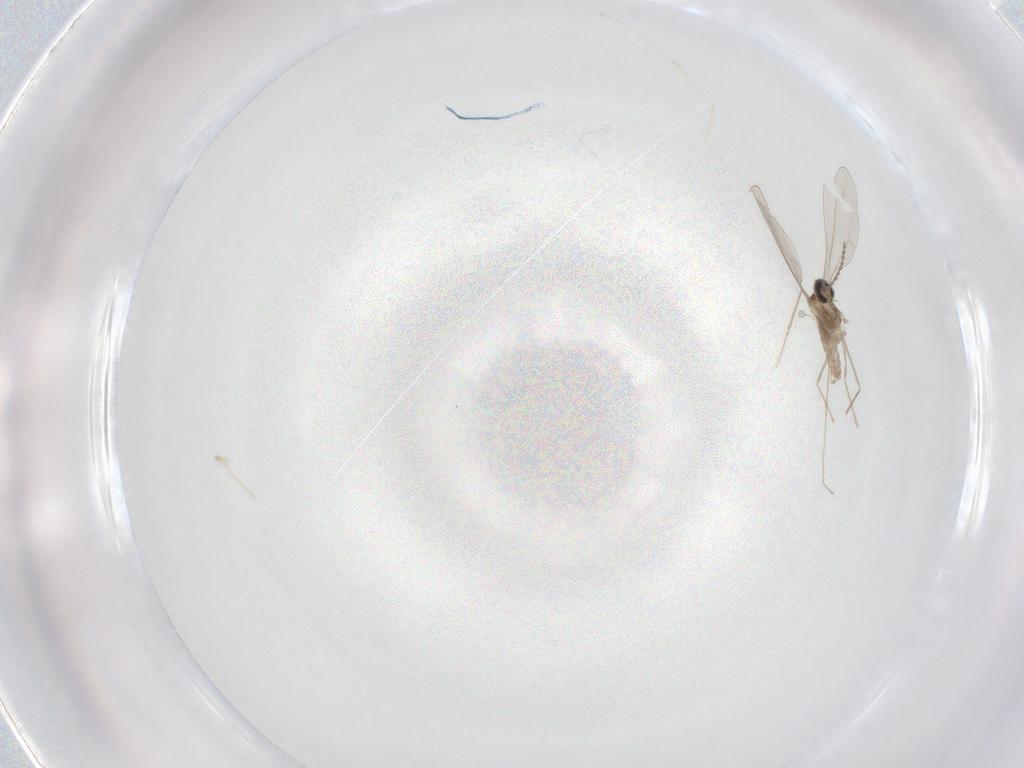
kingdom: Animalia
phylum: Arthropoda
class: Insecta
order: Diptera
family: Cecidomyiidae
